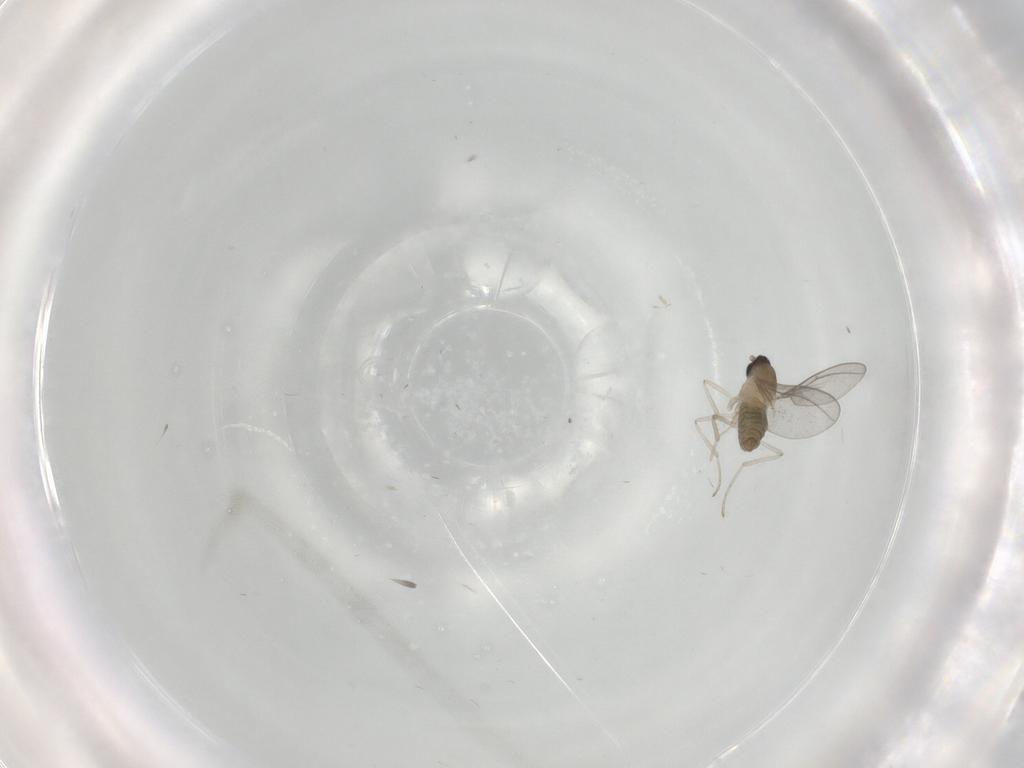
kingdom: Animalia
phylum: Arthropoda
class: Insecta
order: Diptera
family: Cecidomyiidae
